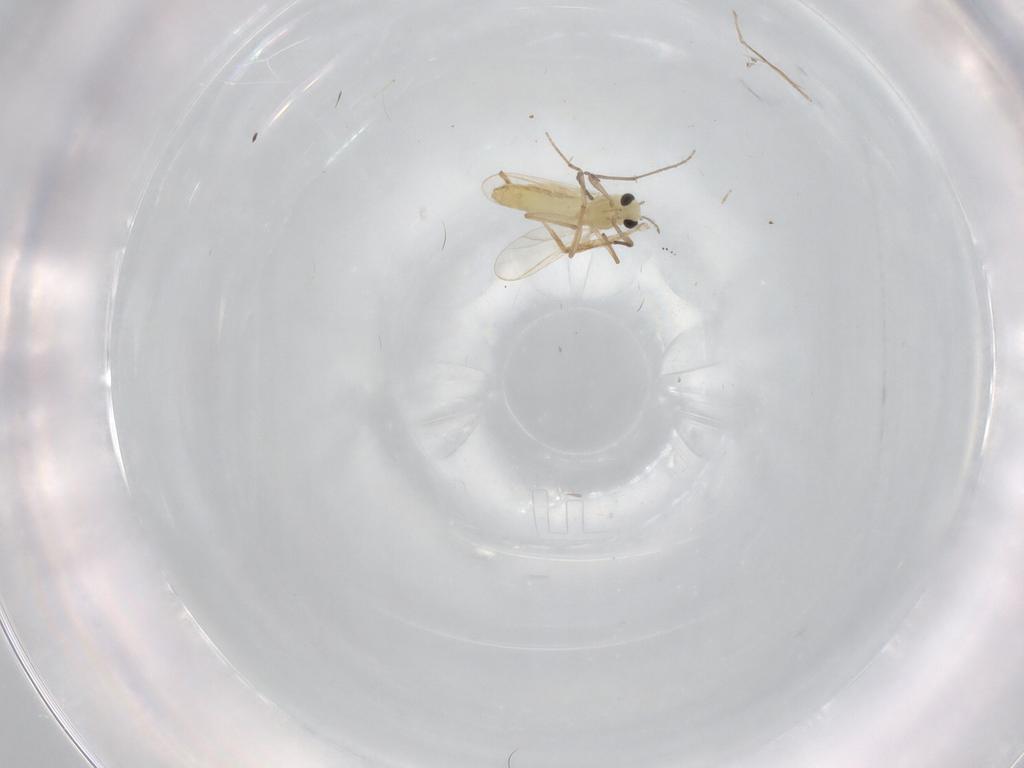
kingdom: Animalia
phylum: Arthropoda
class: Insecta
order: Diptera
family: Chironomidae
